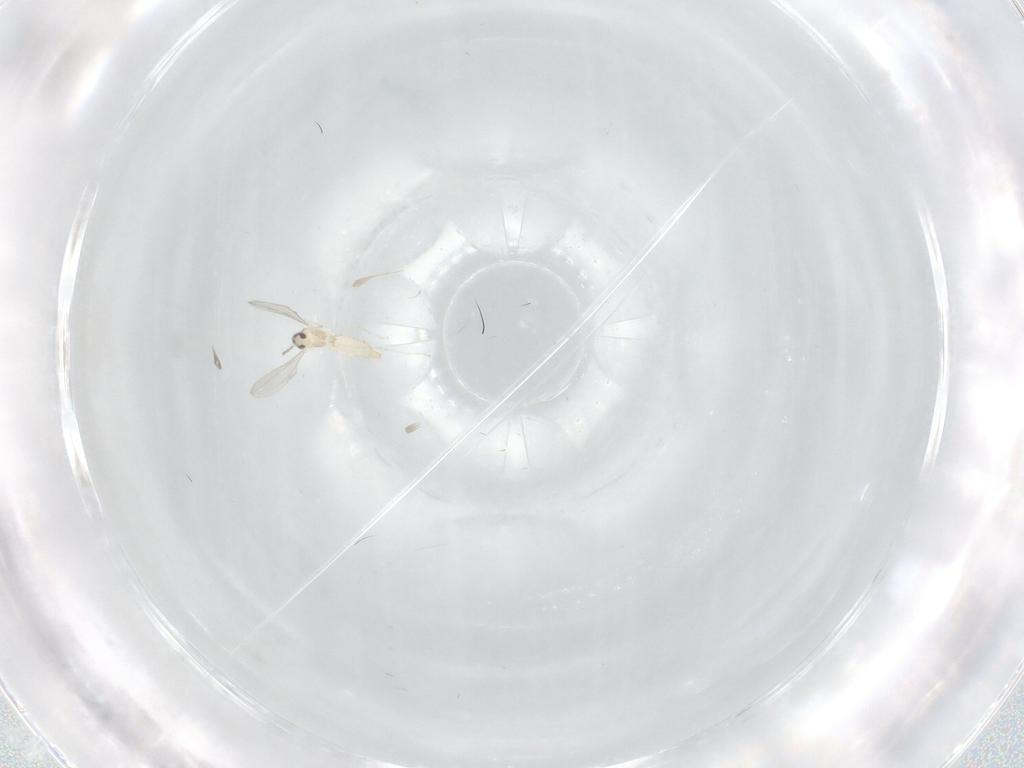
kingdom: Animalia
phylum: Arthropoda
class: Insecta
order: Diptera
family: Cecidomyiidae
